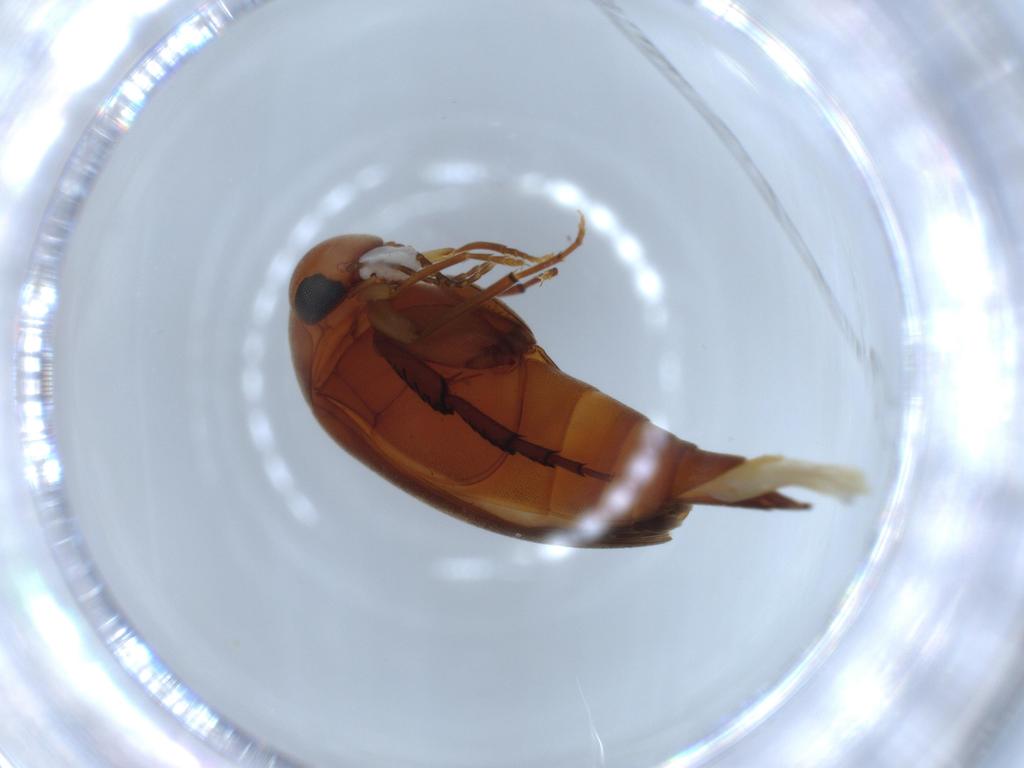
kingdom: Animalia
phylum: Arthropoda
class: Insecta
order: Coleoptera
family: Mordellidae
